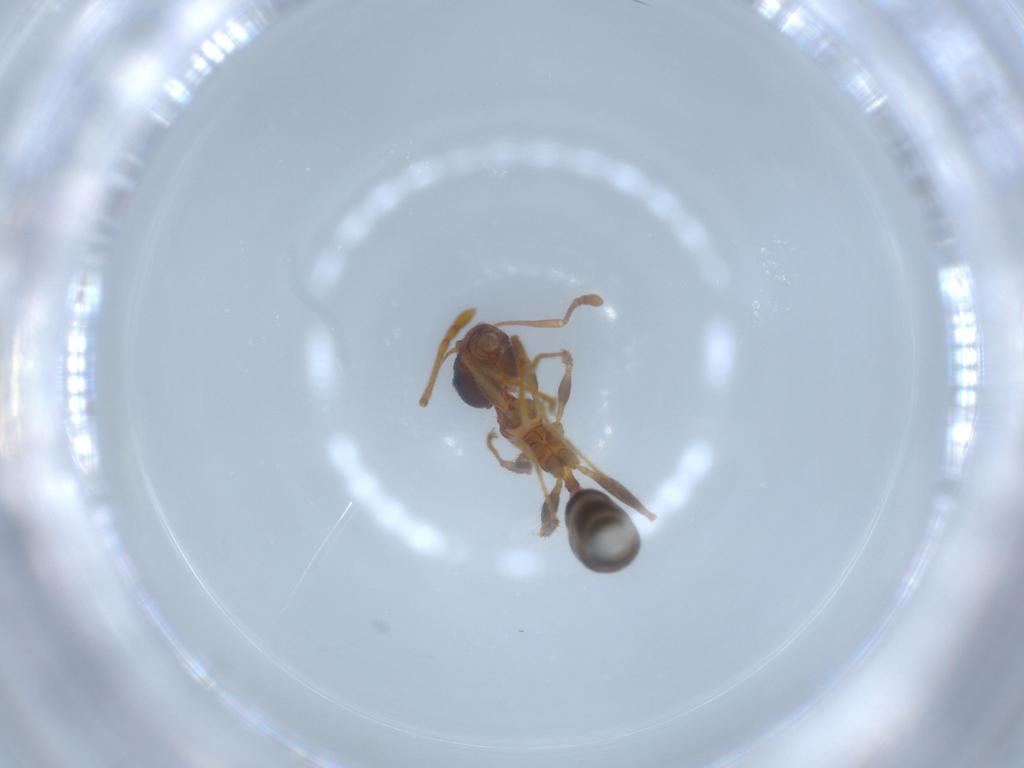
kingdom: Animalia
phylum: Arthropoda
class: Insecta
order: Hymenoptera
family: Formicidae
